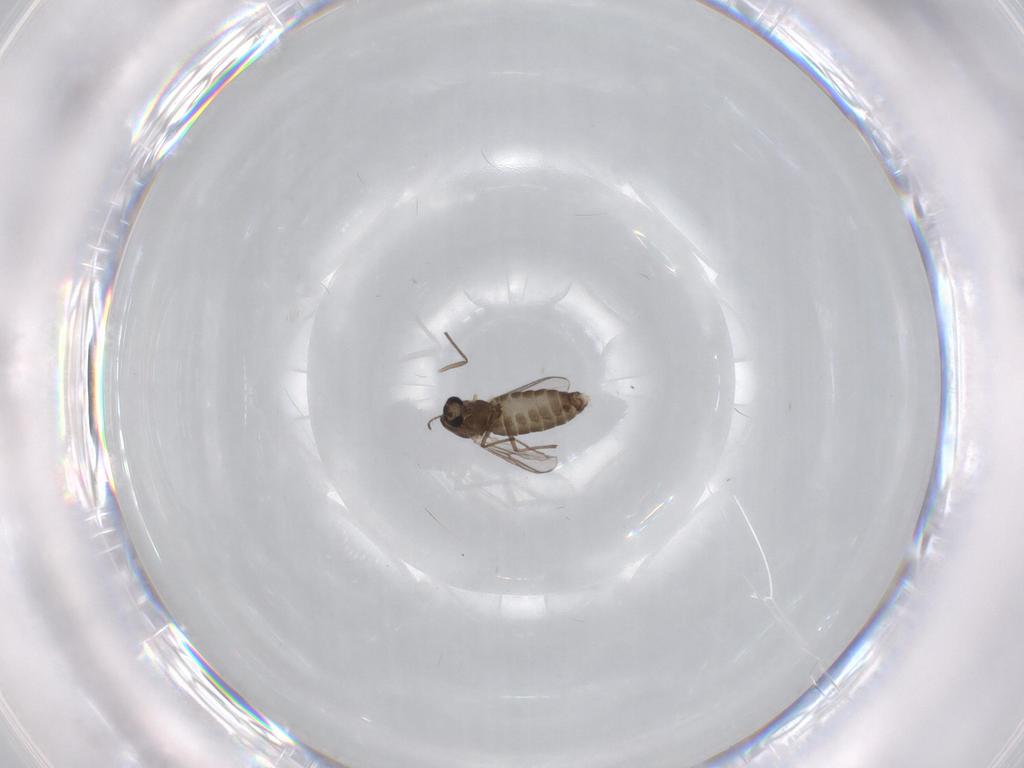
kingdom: Animalia
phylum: Arthropoda
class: Insecta
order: Diptera
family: Chironomidae
